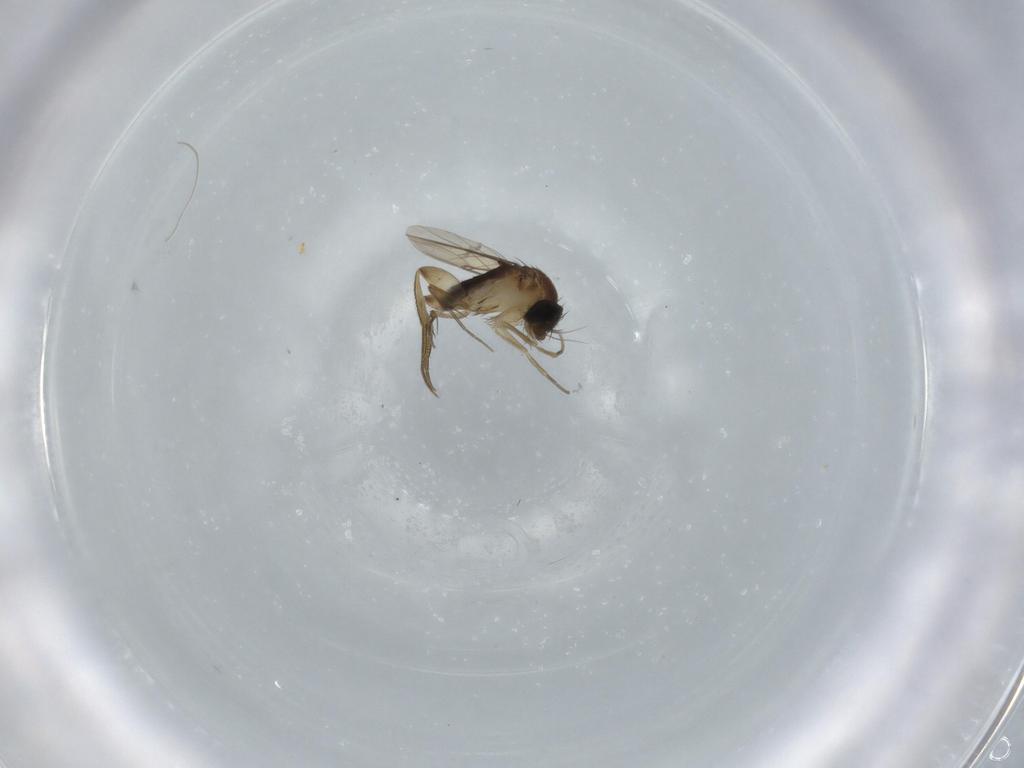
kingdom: Animalia
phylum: Arthropoda
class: Insecta
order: Diptera
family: Phoridae
